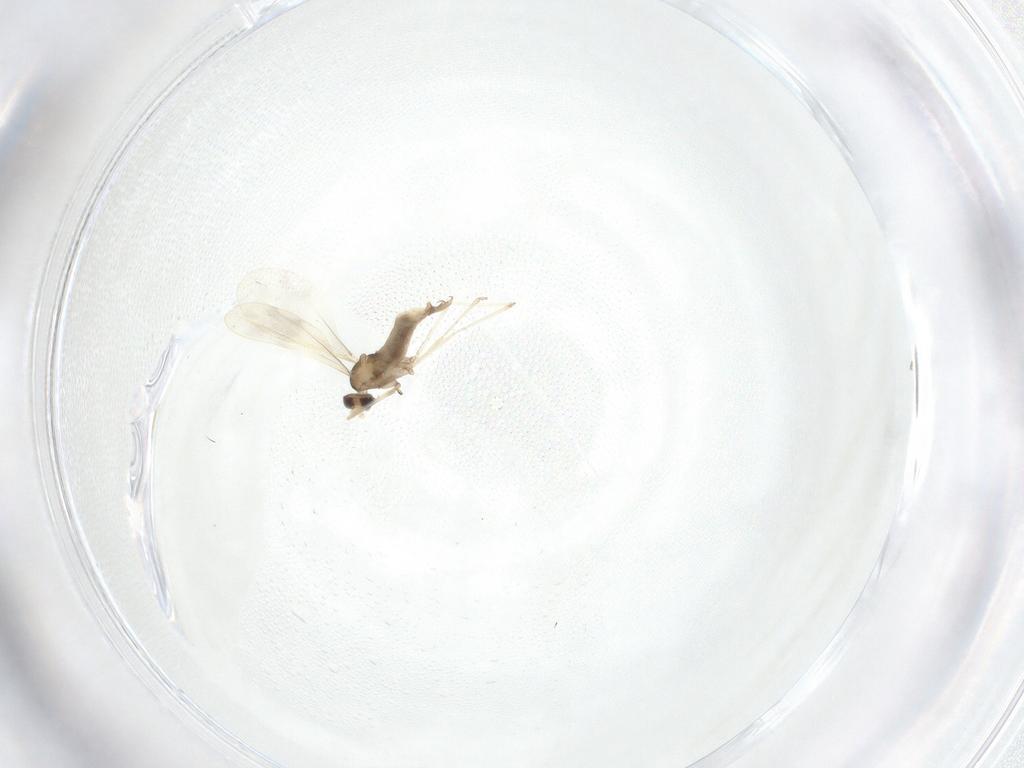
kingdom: Animalia
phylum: Arthropoda
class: Insecta
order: Diptera
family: Cecidomyiidae
